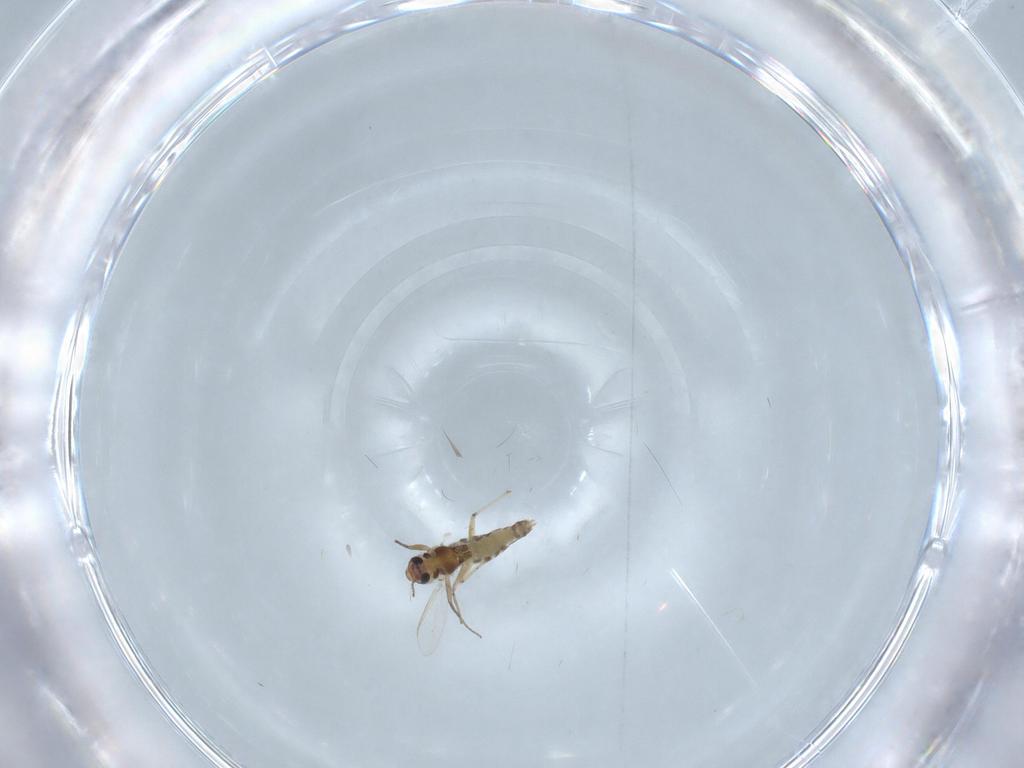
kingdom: Animalia
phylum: Arthropoda
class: Insecta
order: Diptera
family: Chironomidae
